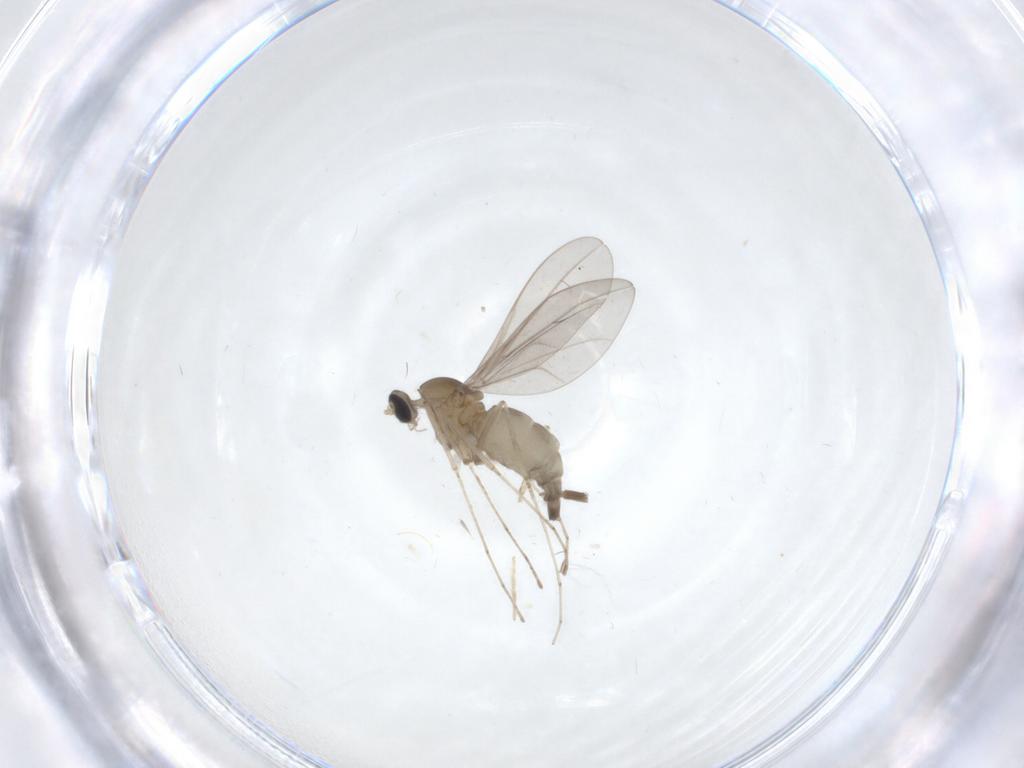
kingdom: Animalia
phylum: Arthropoda
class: Insecta
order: Diptera
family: Cecidomyiidae
